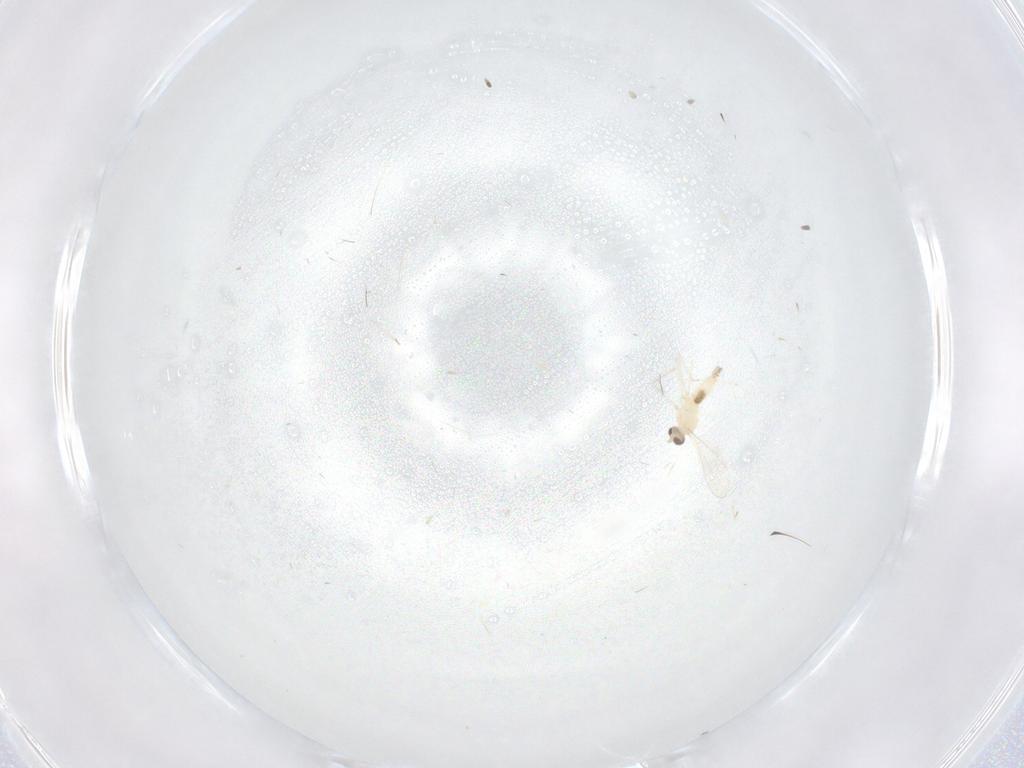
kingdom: Animalia
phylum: Arthropoda
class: Insecta
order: Diptera
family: Cecidomyiidae
